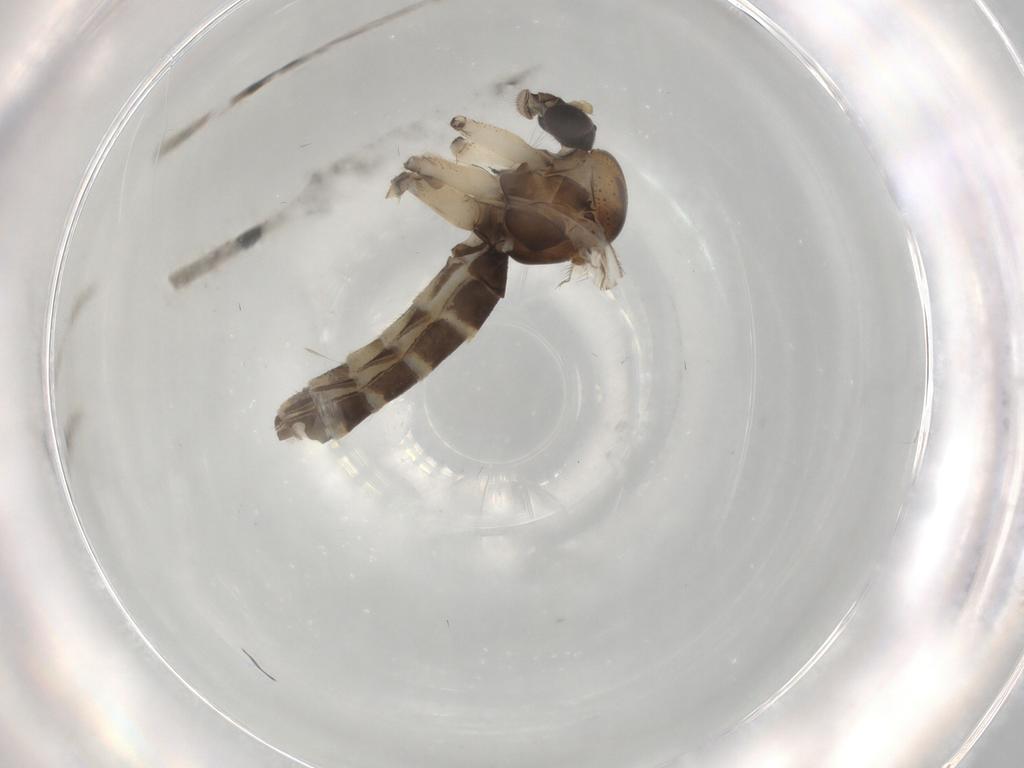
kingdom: Animalia
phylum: Arthropoda
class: Insecta
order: Diptera
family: Mycetophilidae
